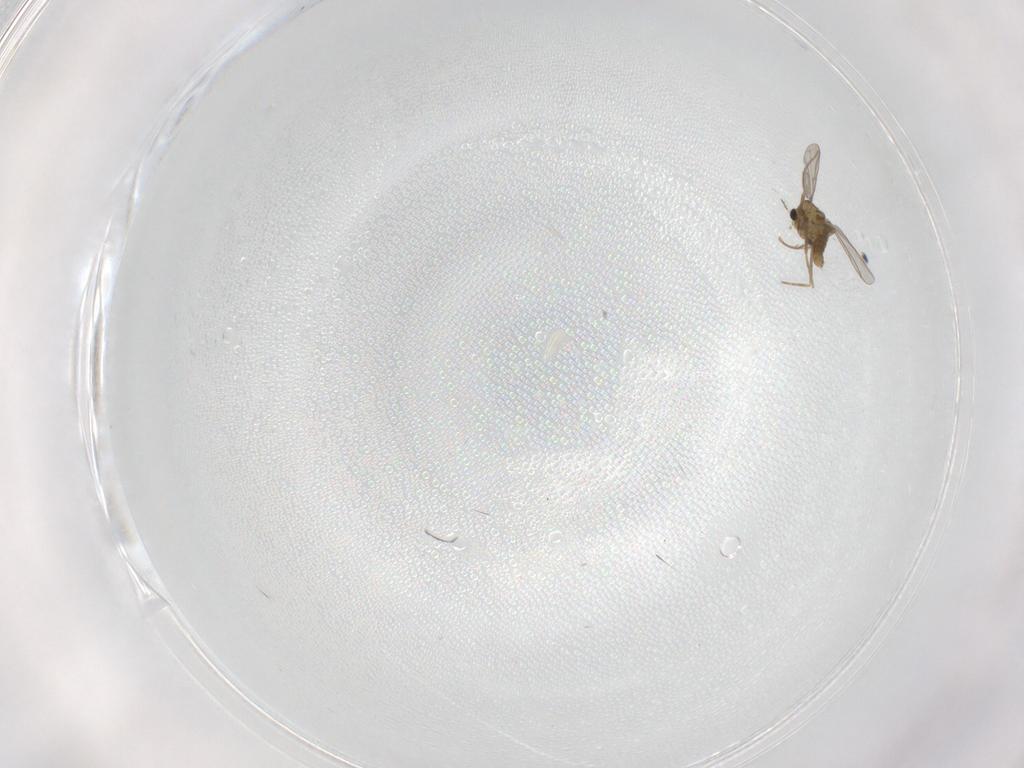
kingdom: Animalia
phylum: Arthropoda
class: Insecta
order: Diptera
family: Chironomidae
